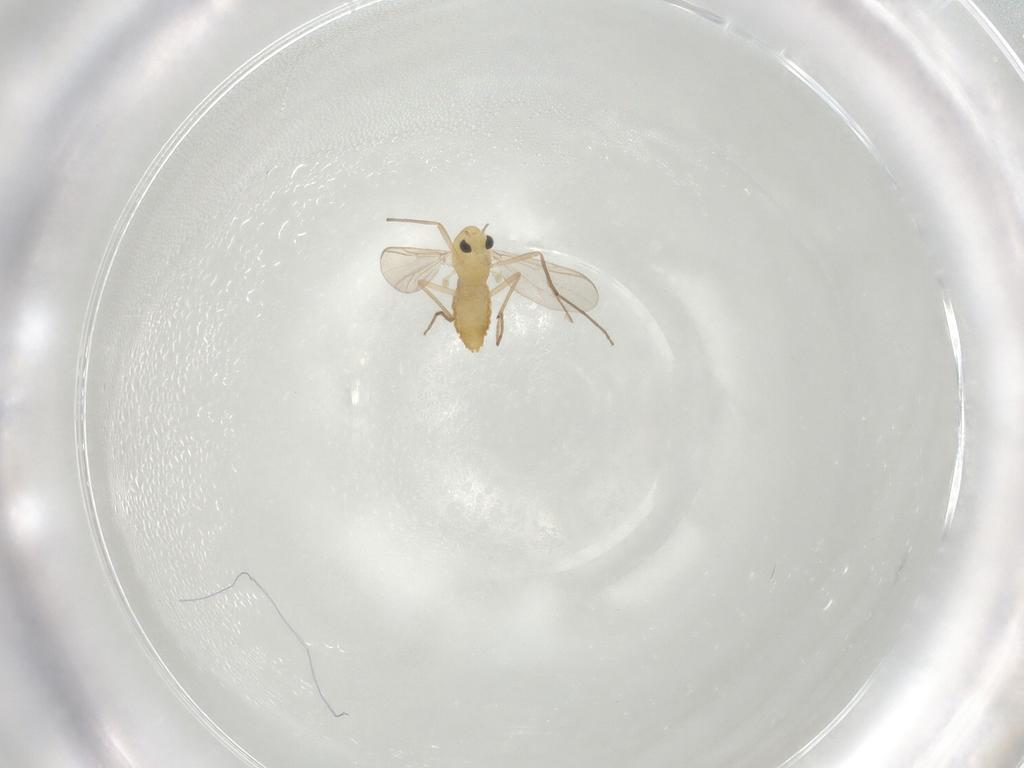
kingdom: Animalia
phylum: Arthropoda
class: Insecta
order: Diptera
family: Chironomidae
